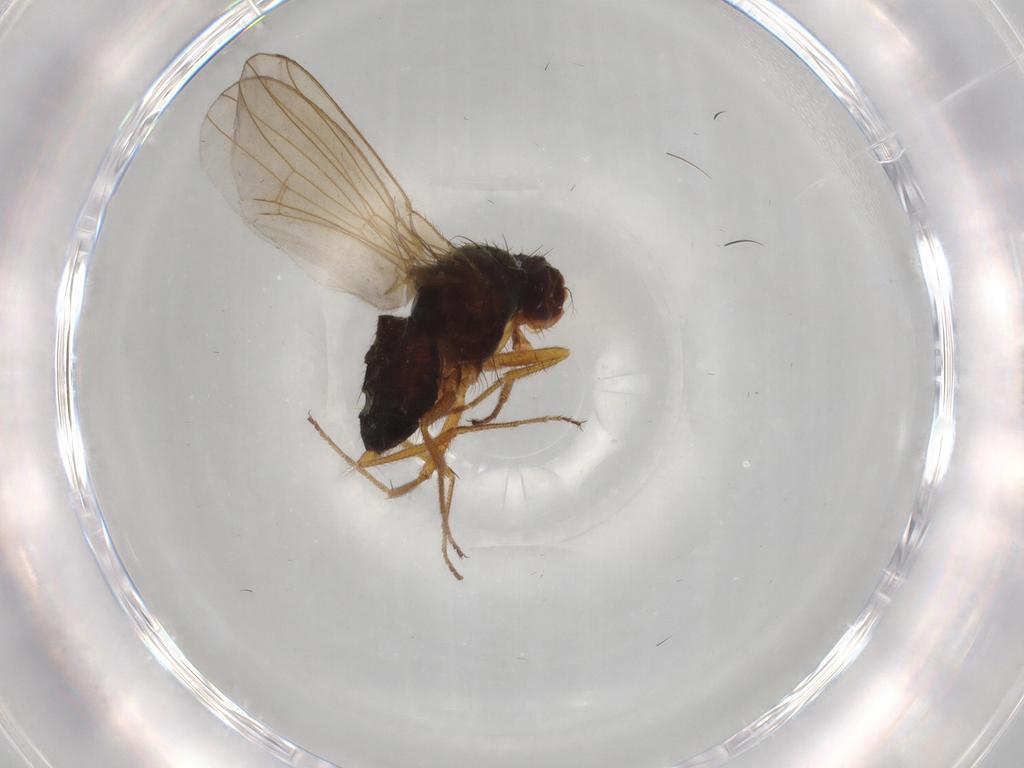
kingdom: Animalia
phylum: Arthropoda
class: Insecta
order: Diptera
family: Drosophilidae
